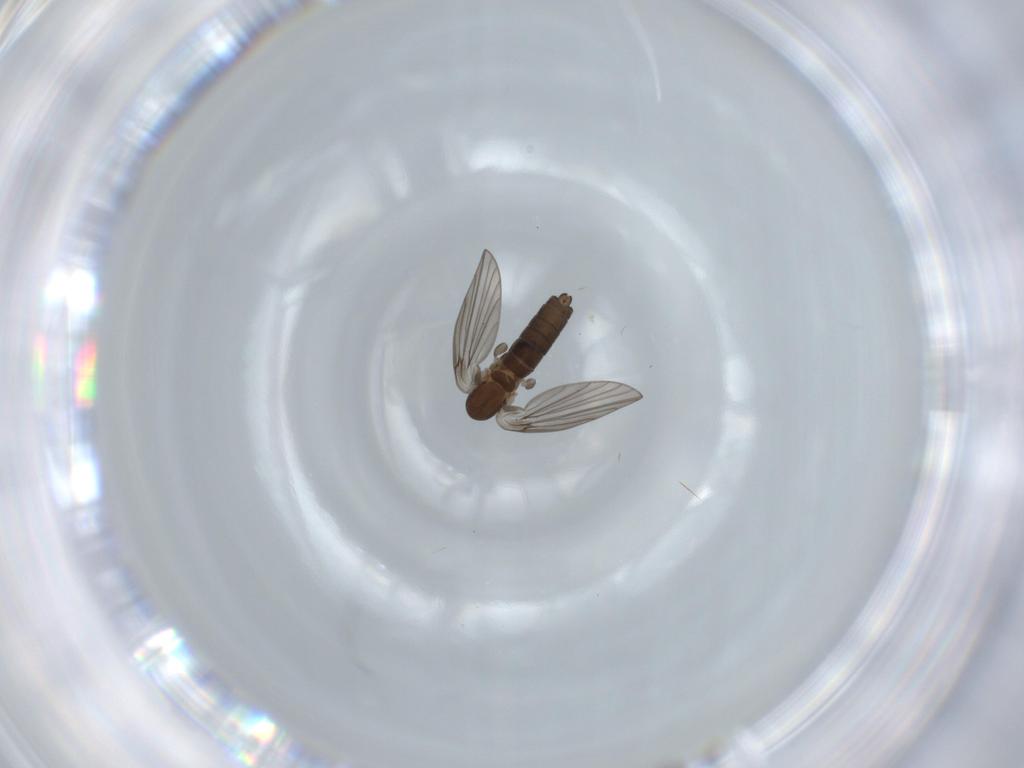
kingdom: Animalia
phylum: Arthropoda
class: Insecta
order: Diptera
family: Psychodidae
